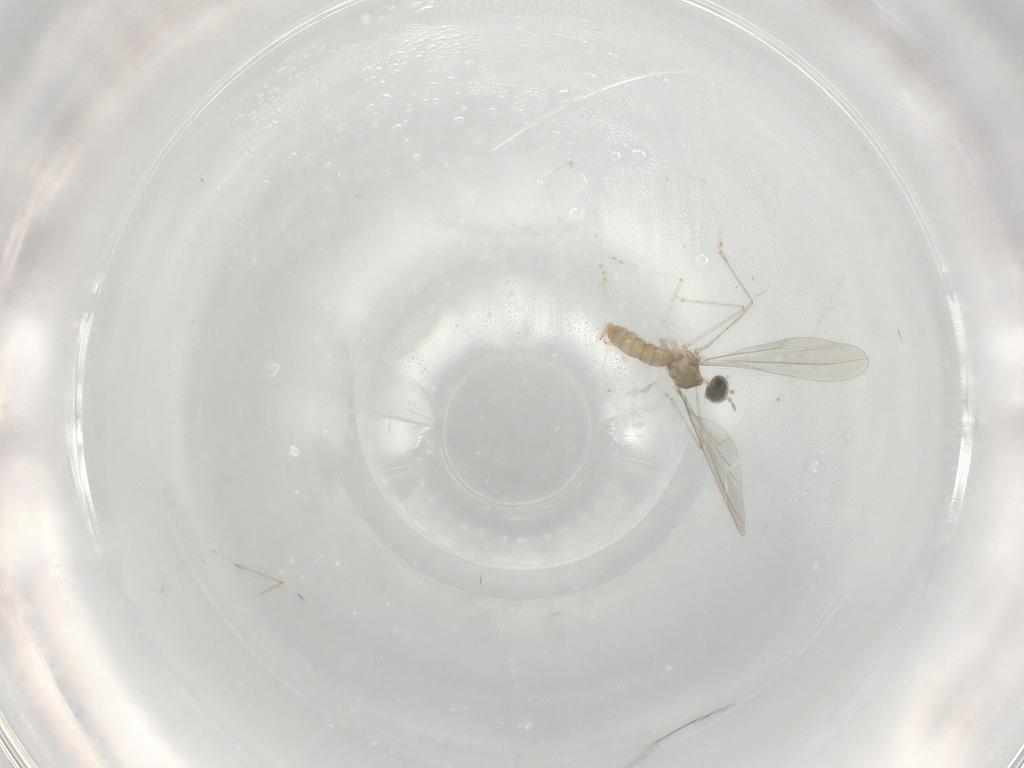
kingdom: Animalia
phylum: Arthropoda
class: Insecta
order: Diptera
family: Cecidomyiidae
